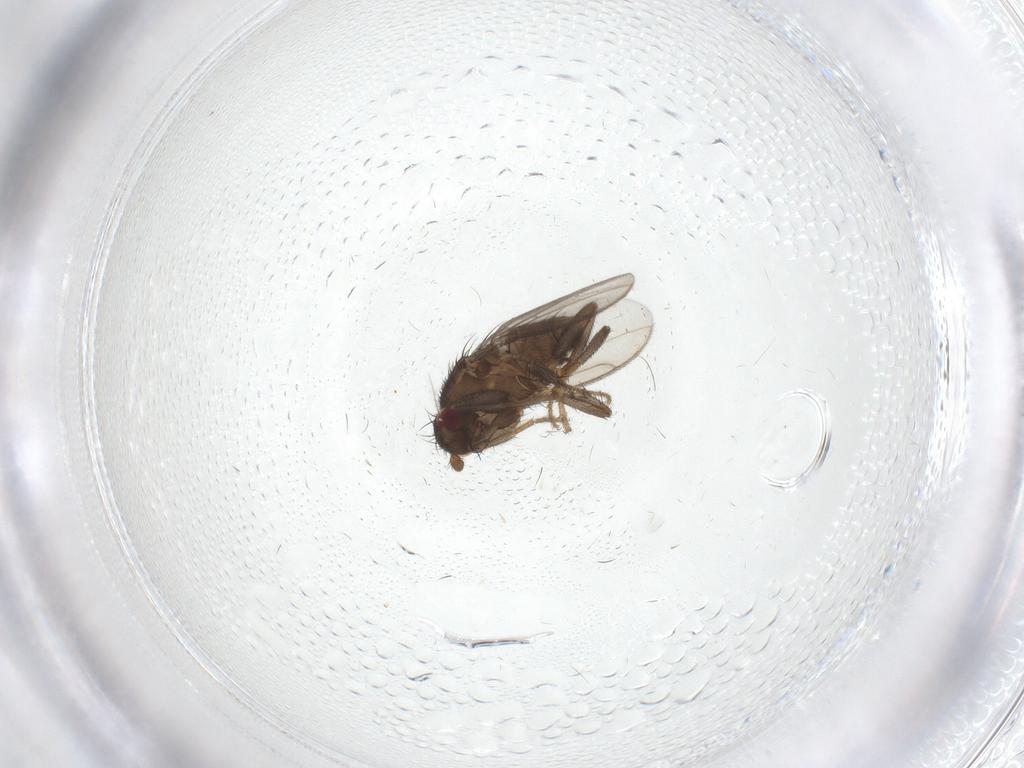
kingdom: Animalia
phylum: Arthropoda
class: Insecta
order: Diptera
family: Sphaeroceridae
